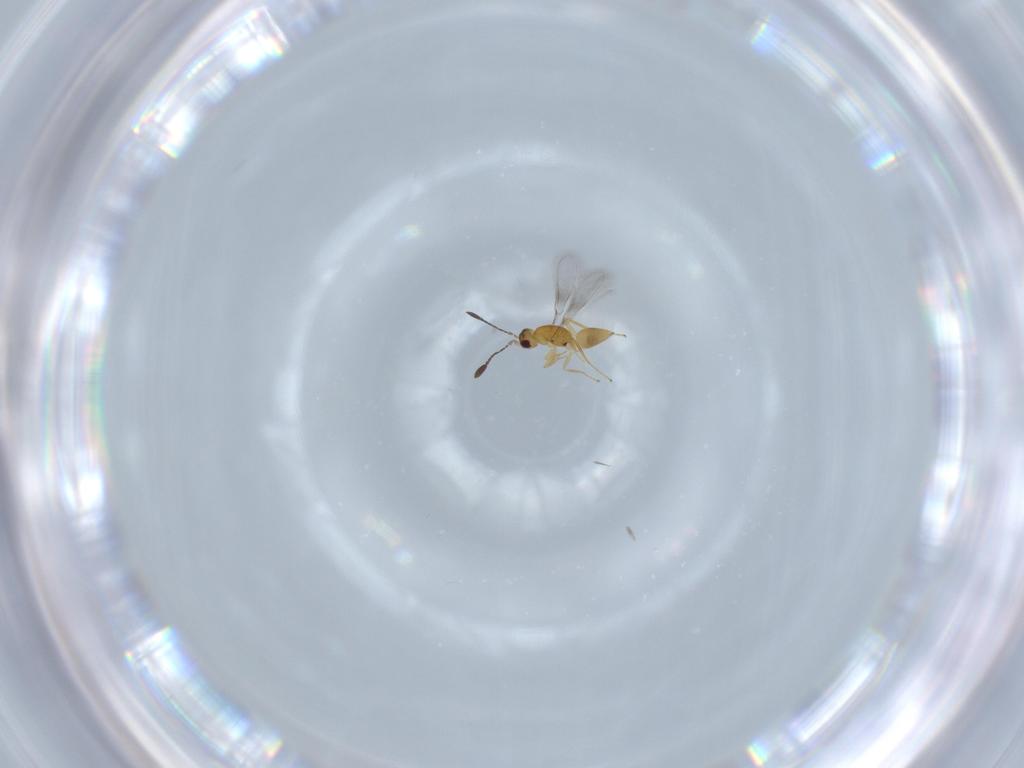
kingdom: Animalia
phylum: Arthropoda
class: Insecta
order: Hymenoptera
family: Mymaridae
